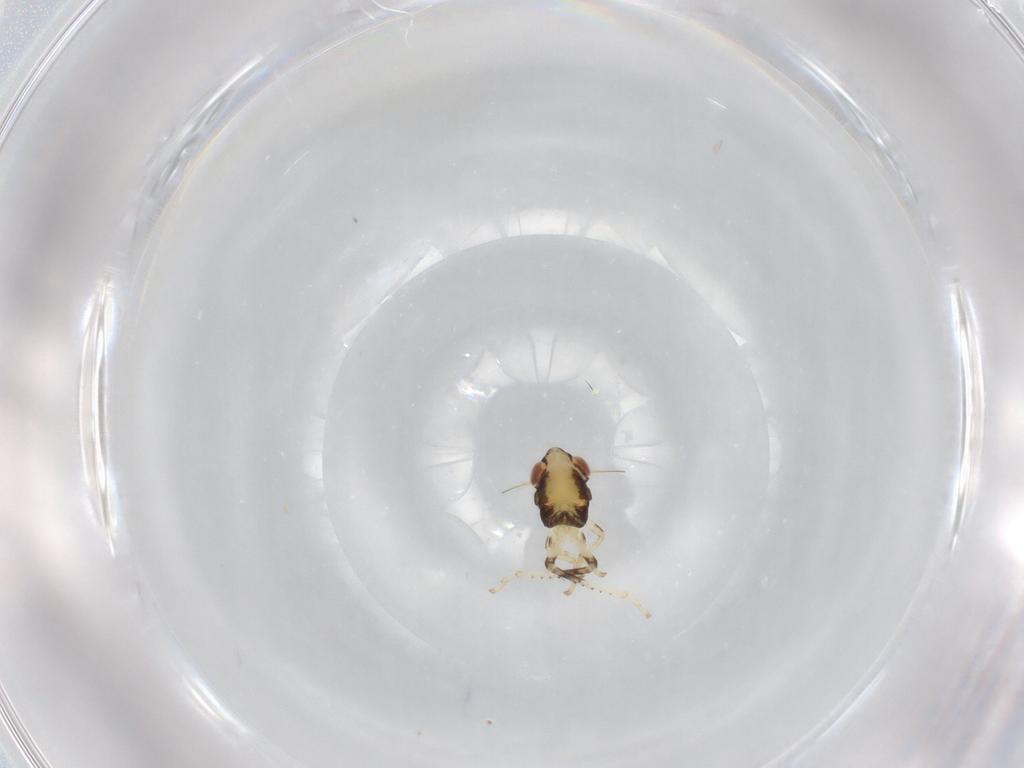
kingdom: Animalia
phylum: Arthropoda
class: Insecta
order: Hemiptera
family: Cicadellidae
